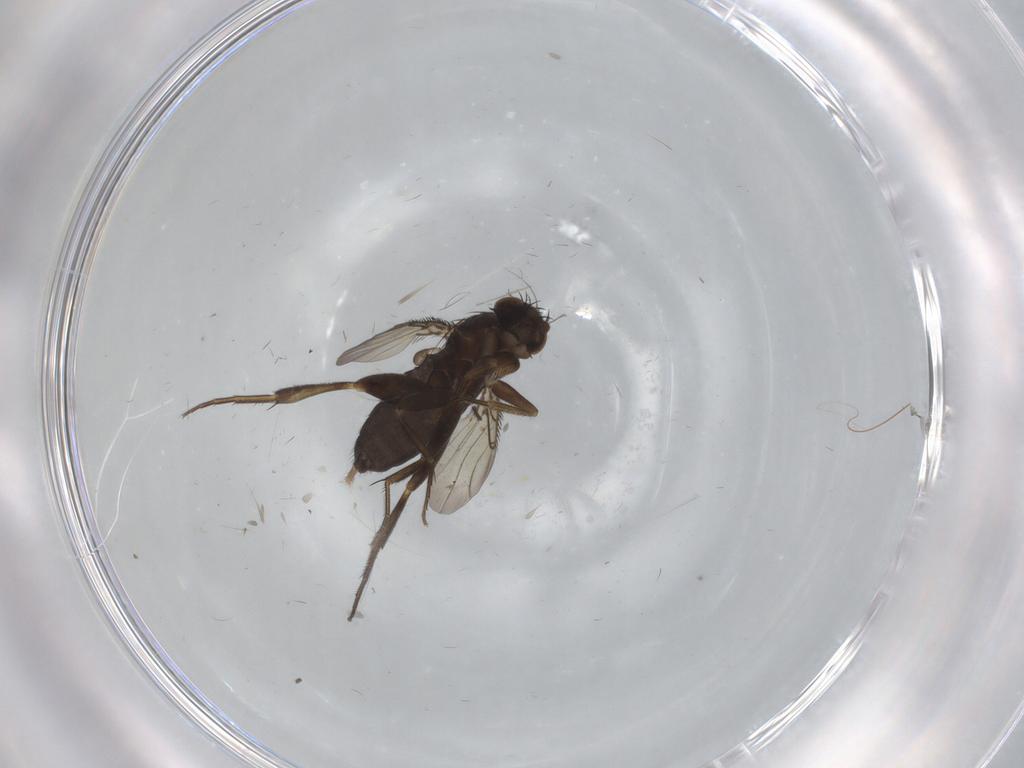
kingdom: Animalia
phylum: Arthropoda
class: Insecta
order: Diptera
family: Phoridae
